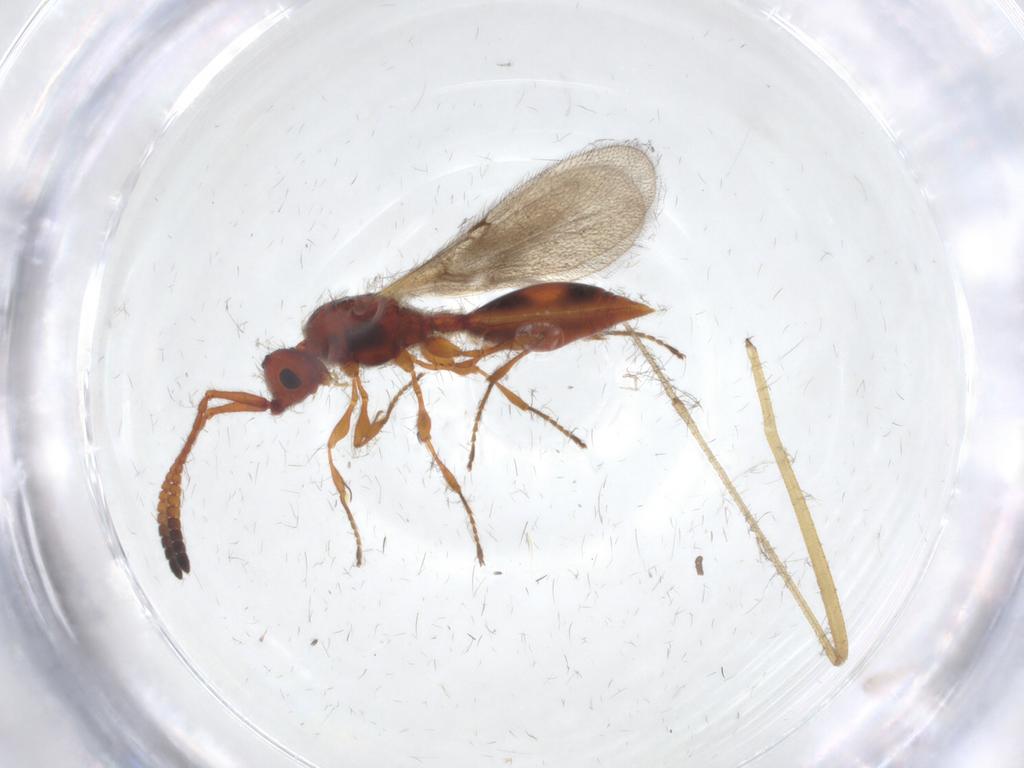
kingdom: Animalia
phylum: Arthropoda
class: Insecta
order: Hymenoptera
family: Diapriidae
